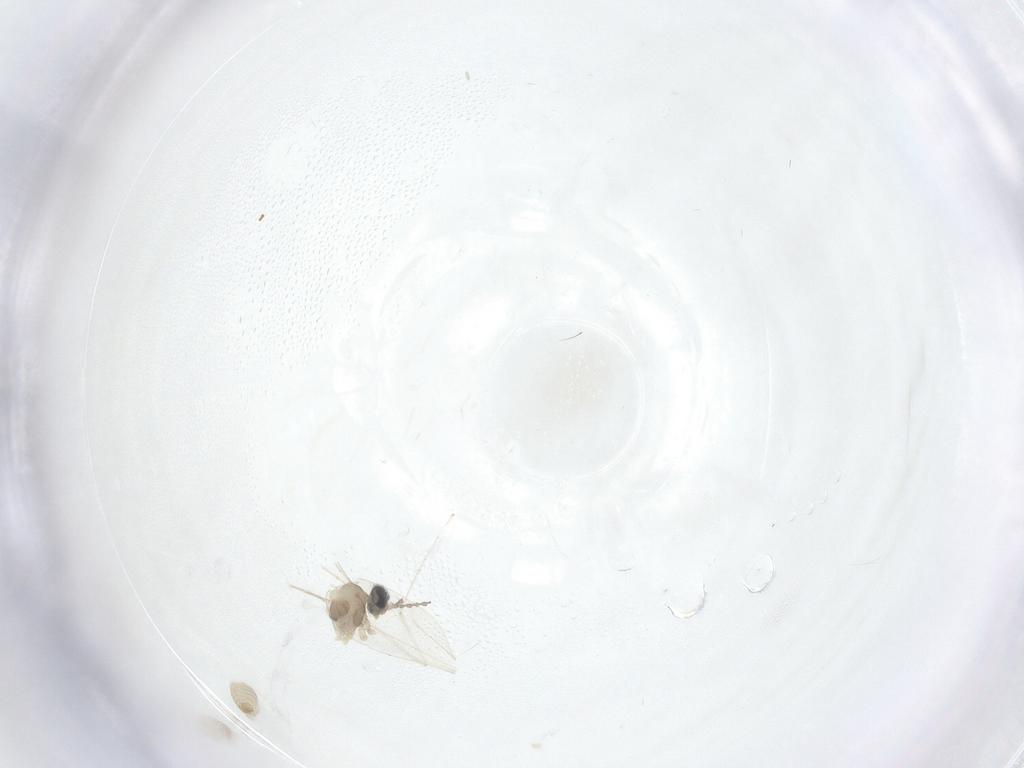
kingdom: Animalia
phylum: Arthropoda
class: Insecta
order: Diptera
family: Cecidomyiidae
